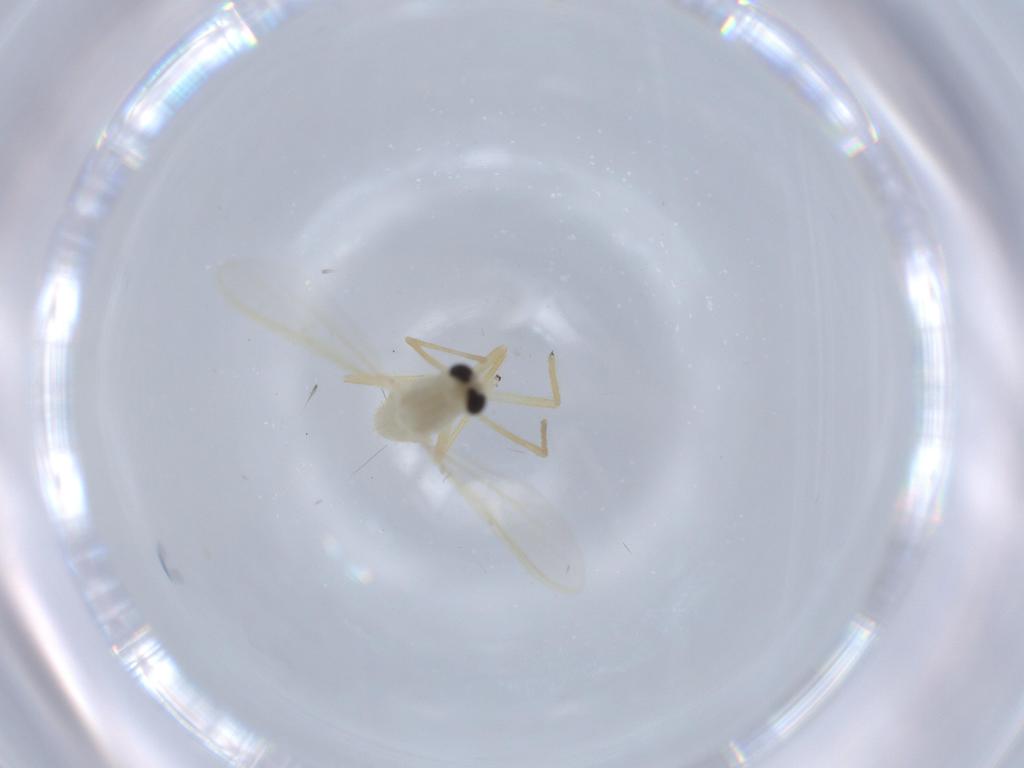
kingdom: Animalia
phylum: Arthropoda
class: Insecta
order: Diptera
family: Chironomidae
